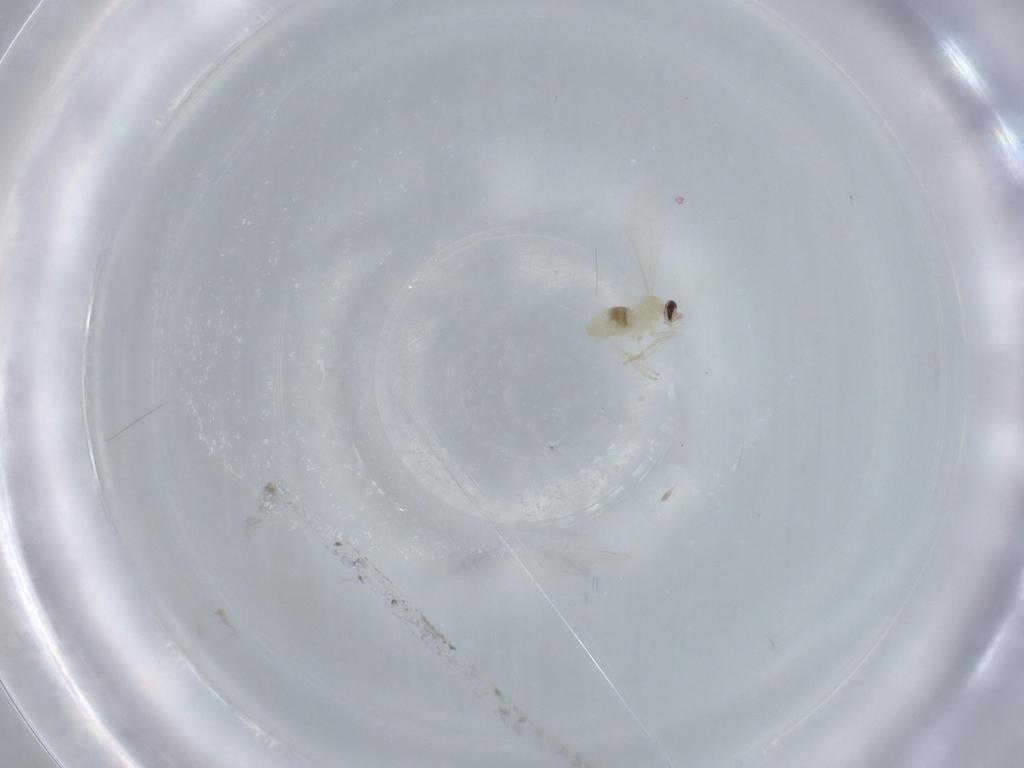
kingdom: Animalia
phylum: Arthropoda
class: Insecta
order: Diptera
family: Cecidomyiidae
